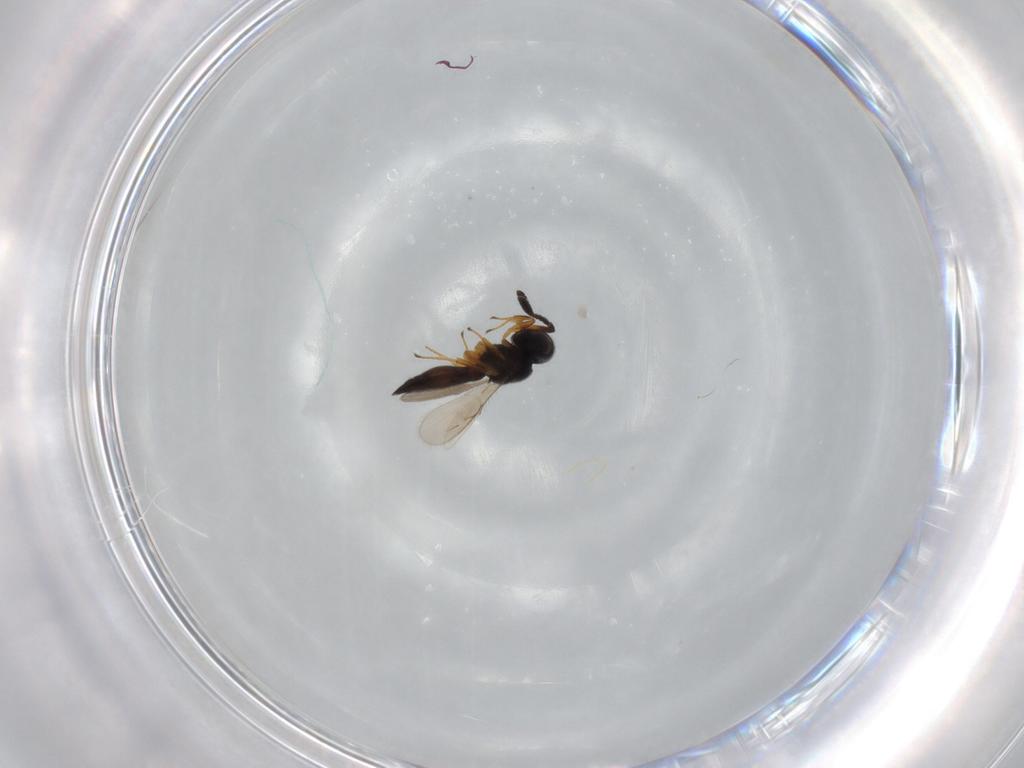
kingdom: Animalia
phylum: Arthropoda
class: Insecta
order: Hymenoptera
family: Scelionidae
